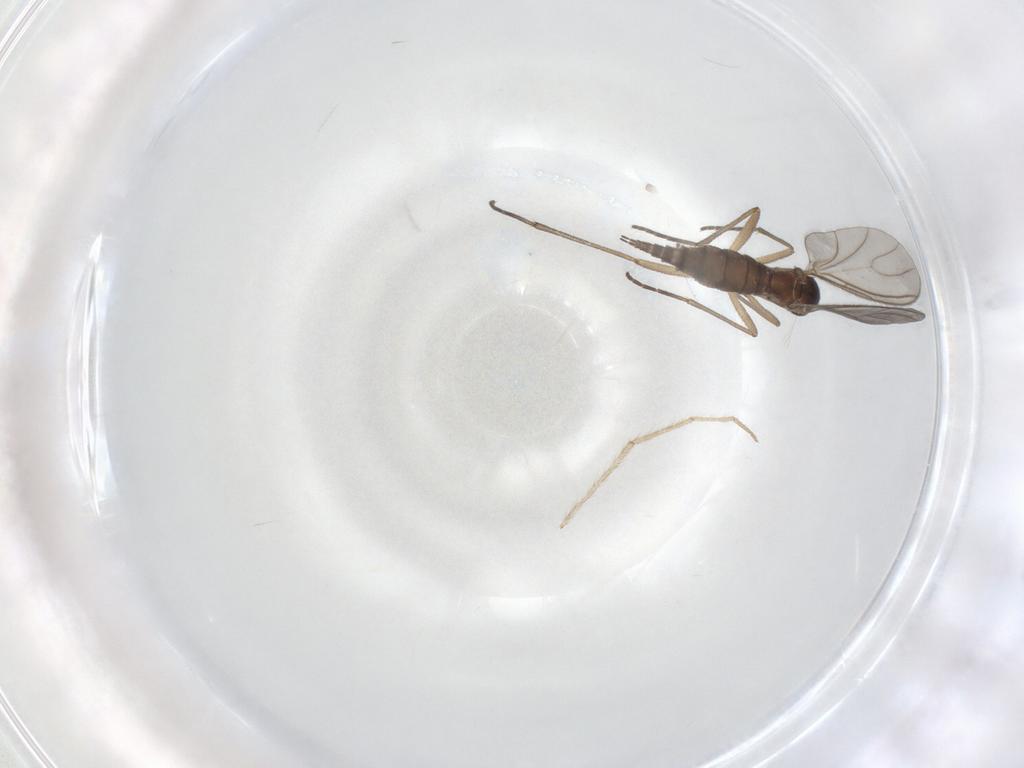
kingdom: Animalia
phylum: Arthropoda
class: Insecta
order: Diptera
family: Sciaridae
